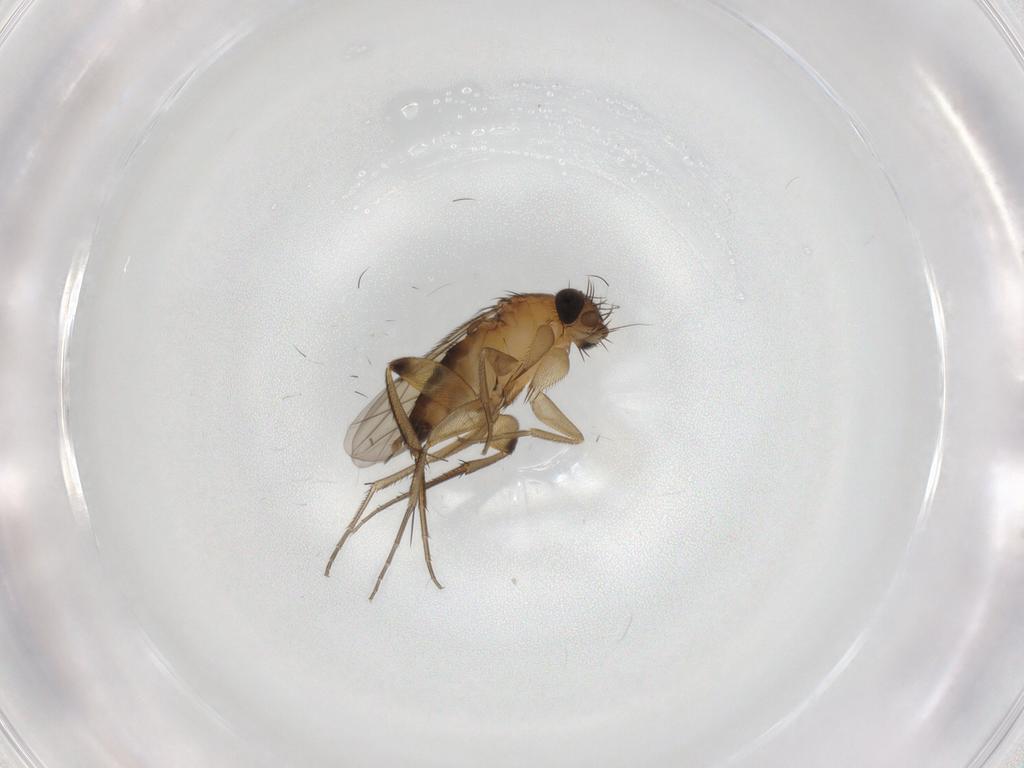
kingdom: Animalia
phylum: Arthropoda
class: Insecta
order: Diptera
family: Phoridae
